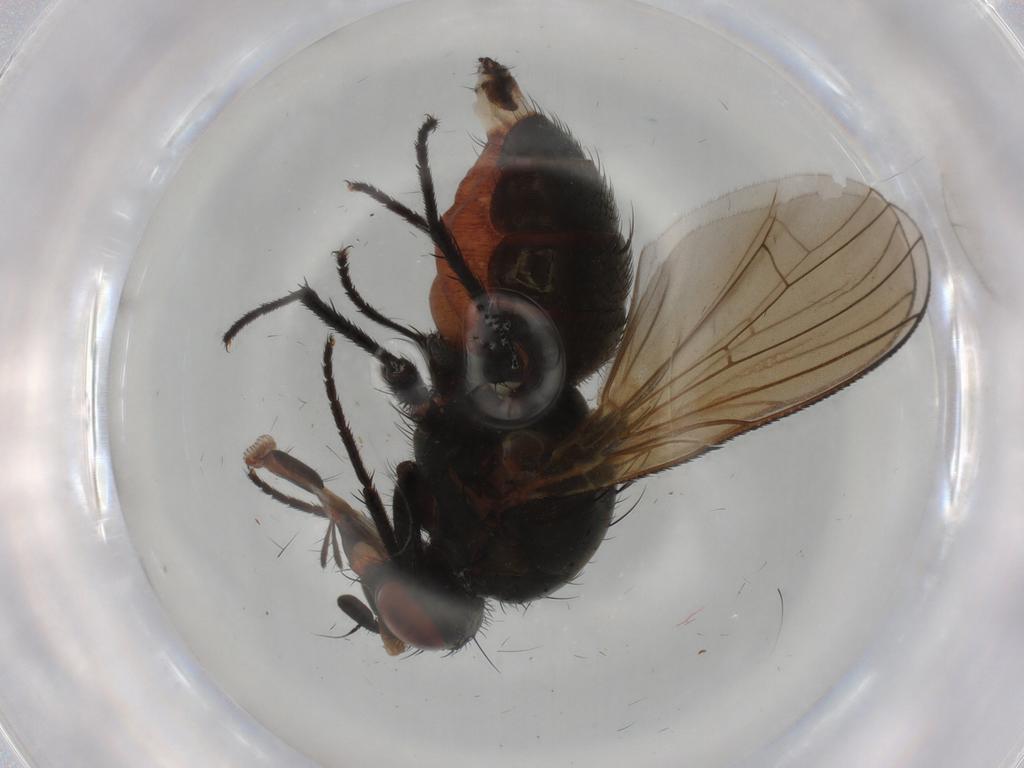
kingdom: Animalia
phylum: Arthropoda
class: Insecta
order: Diptera
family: Anthomyiidae
